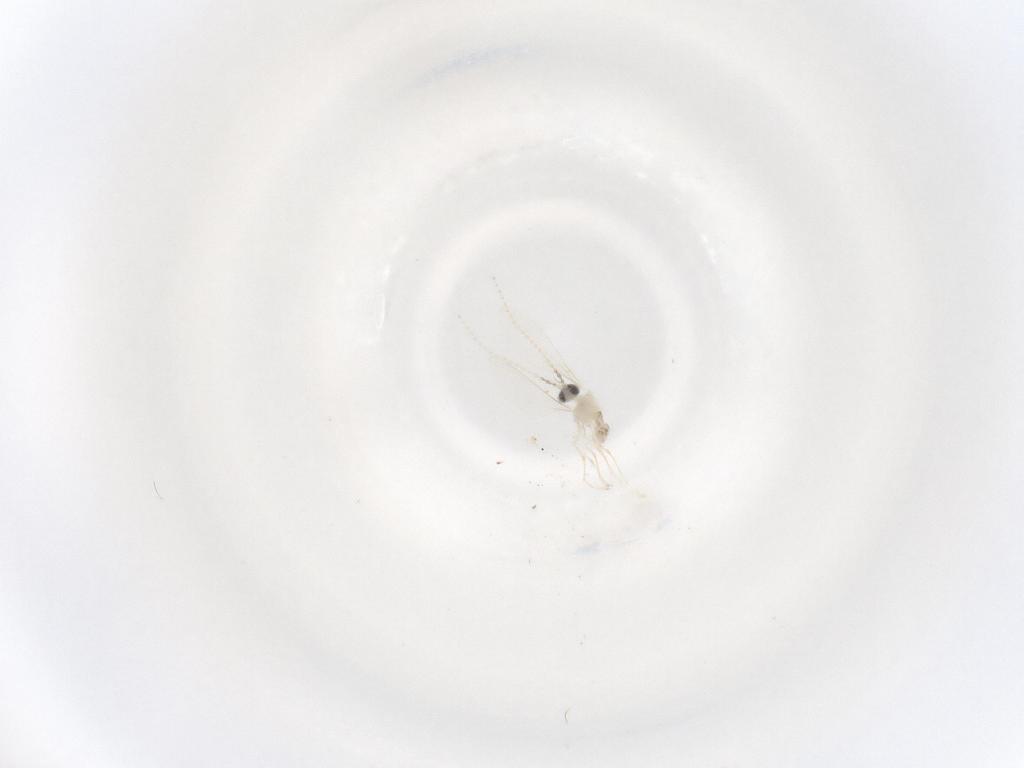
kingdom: Animalia
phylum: Arthropoda
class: Insecta
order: Diptera
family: Cecidomyiidae
